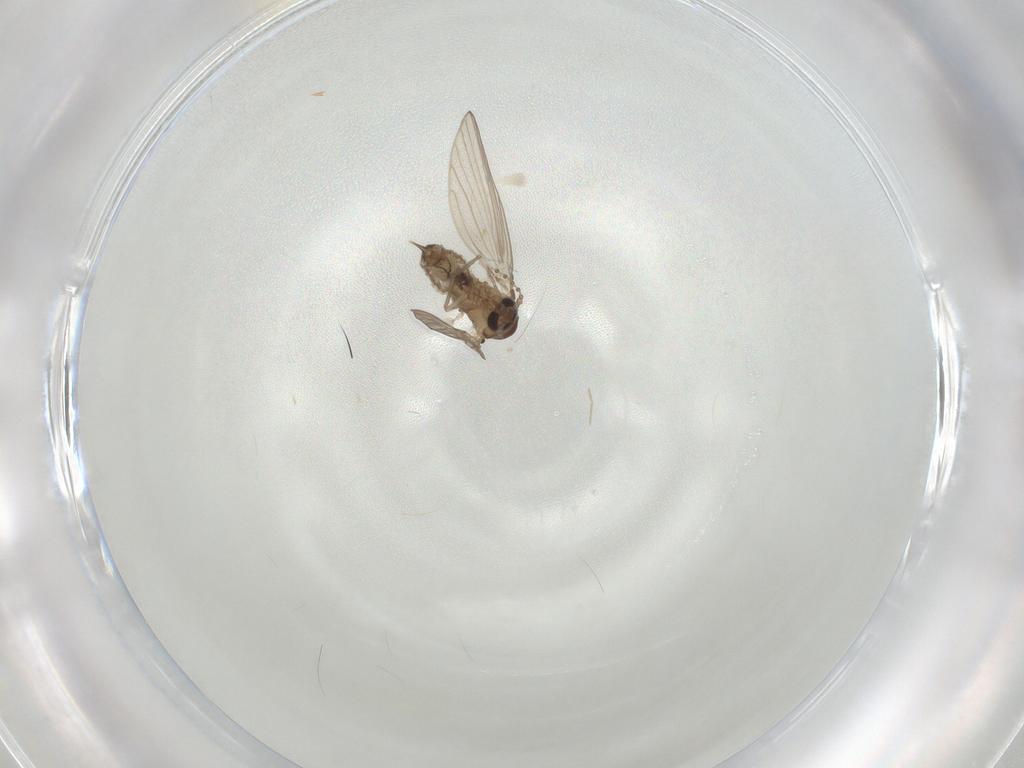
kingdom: Animalia
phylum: Arthropoda
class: Insecta
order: Diptera
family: Psychodidae
